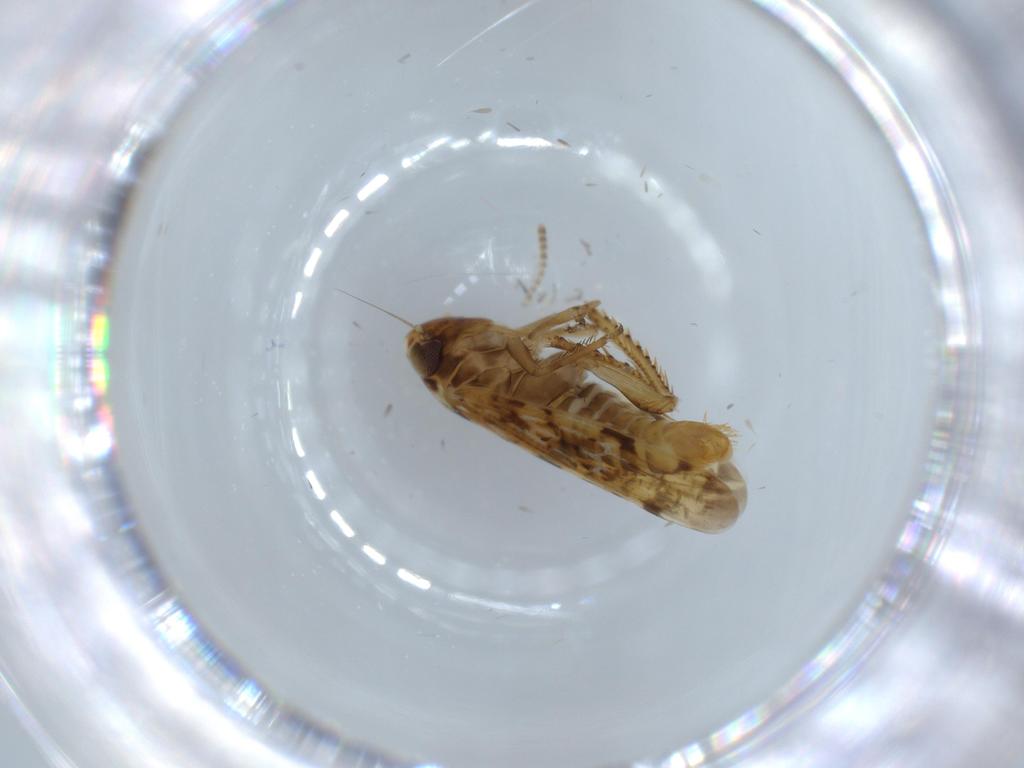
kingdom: Animalia
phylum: Arthropoda
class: Insecta
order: Hemiptera
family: Cicadellidae
